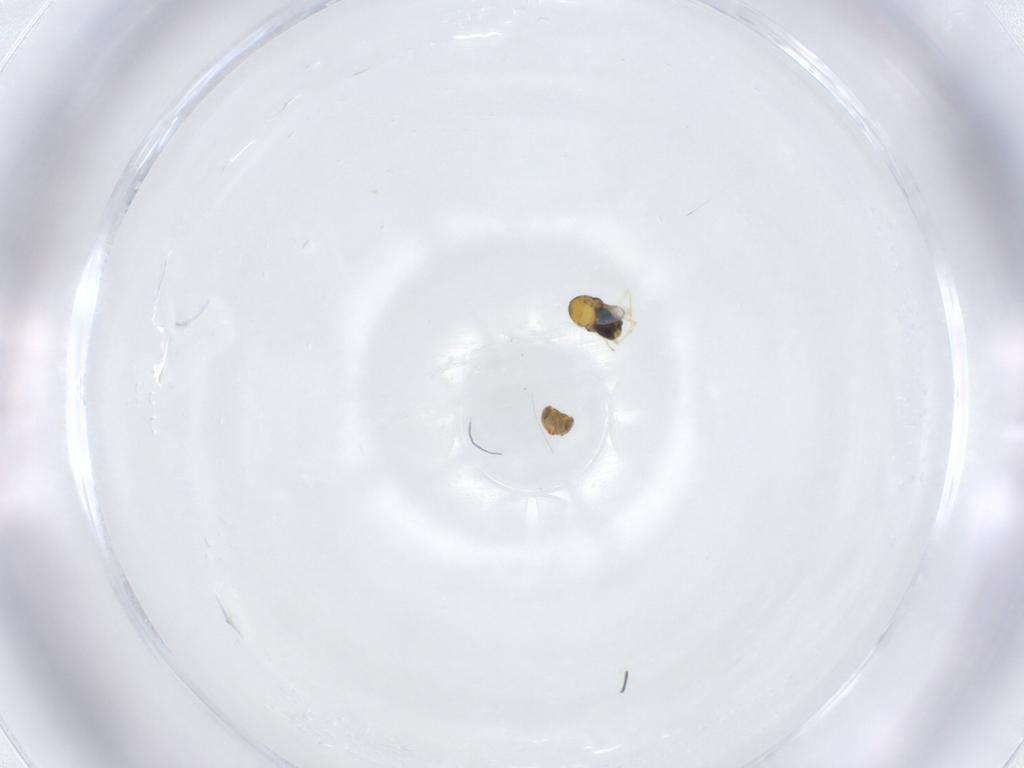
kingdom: Animalia
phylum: Arthropoda
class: Insecta
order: Hymenoptera
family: Aphelinidae
